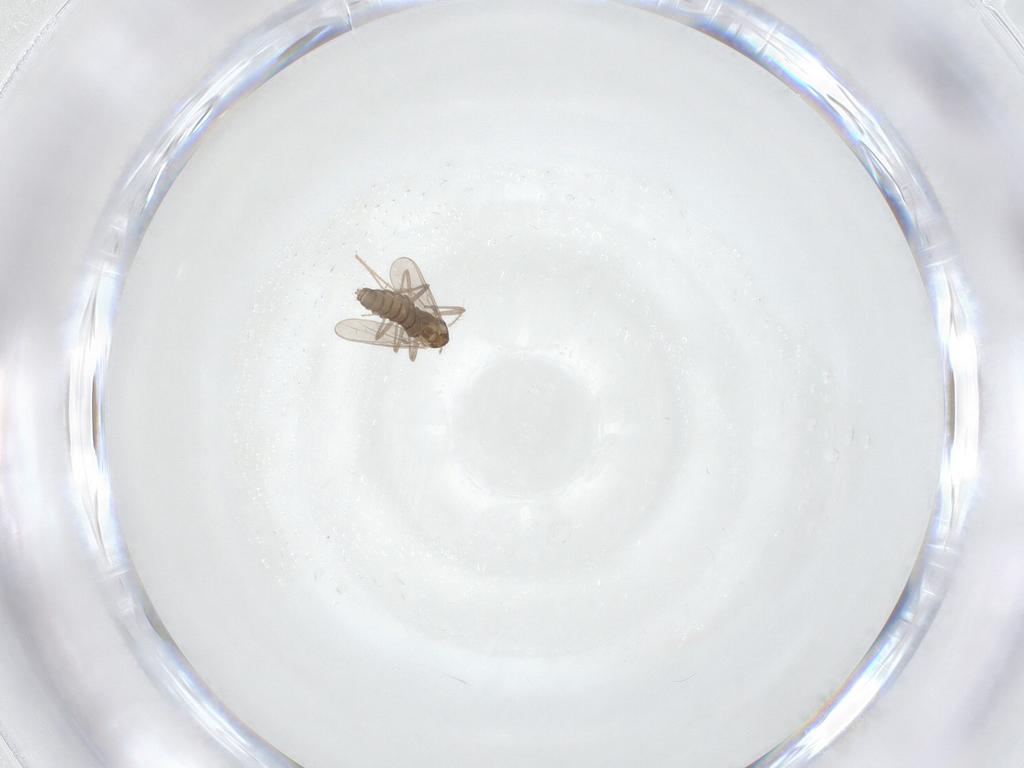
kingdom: Animalia
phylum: Arthropoda
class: Insecta
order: Diptera
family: Chironomidae
